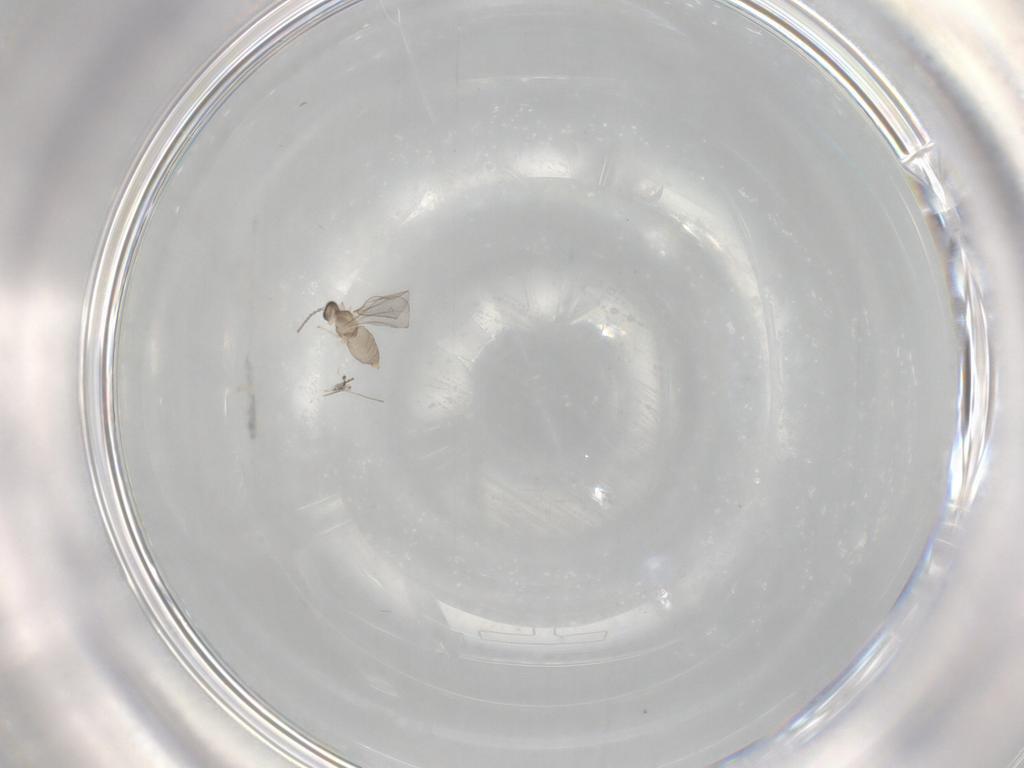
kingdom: Animalia
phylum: Arthropoda
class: Insecta
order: Diptera
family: Cecidomyiidae
